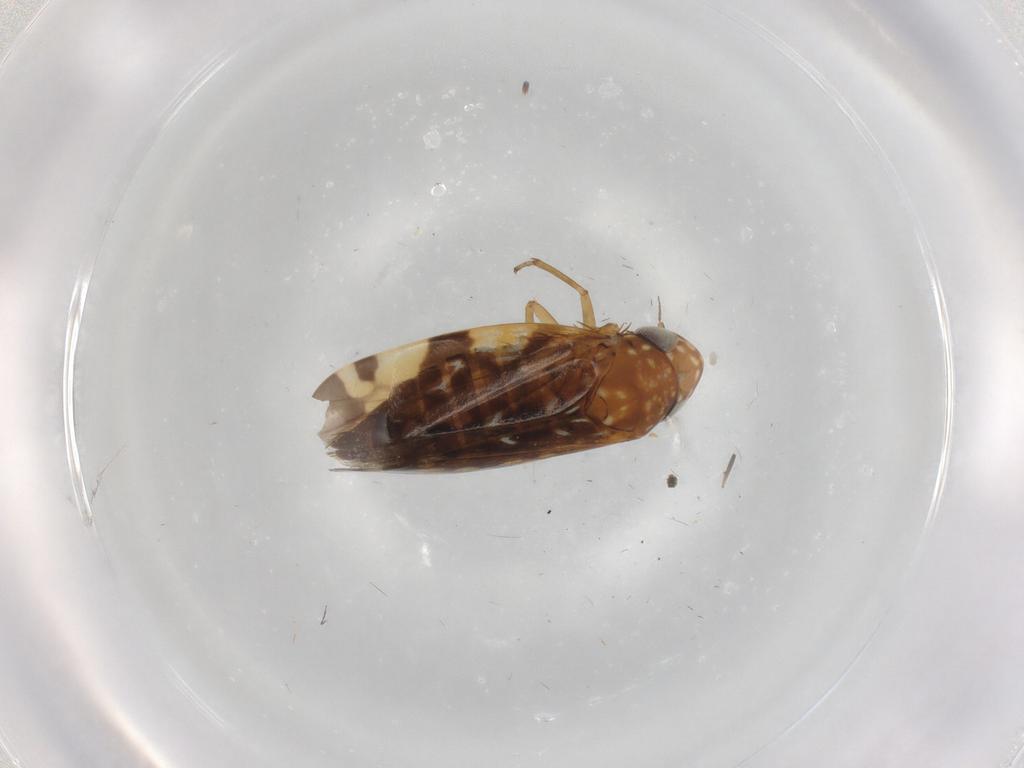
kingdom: Animalia
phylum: Arthropoda
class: Insecta
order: Hemiptera
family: Cicadellidae
